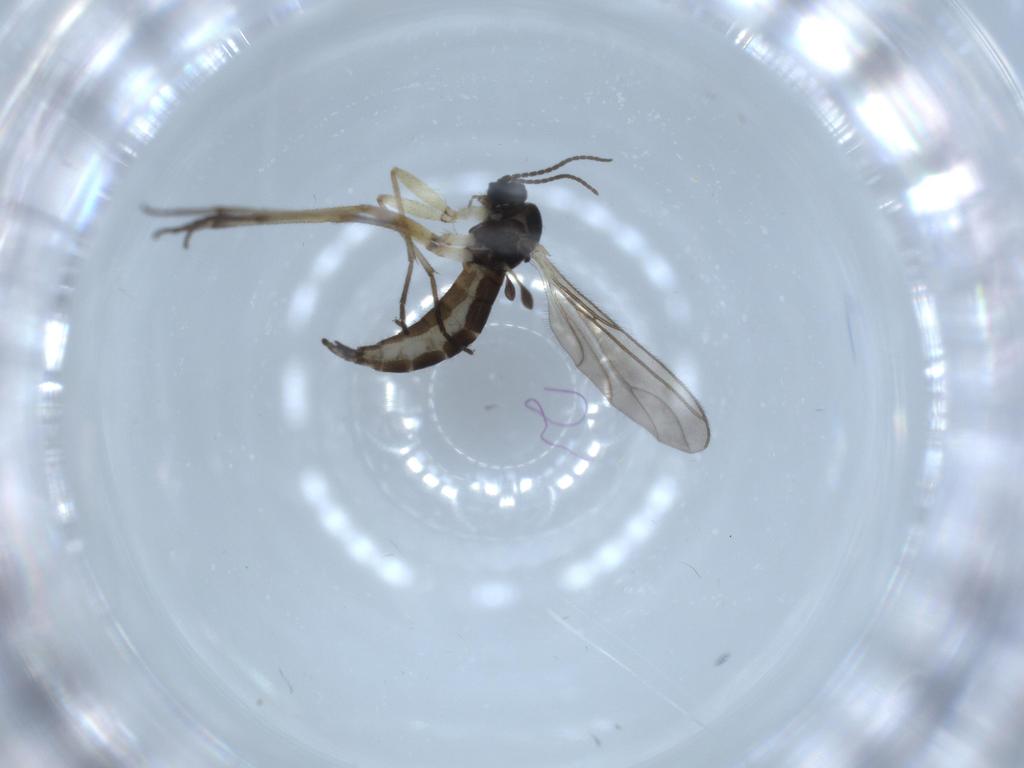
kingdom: Animalia
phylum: Arthropoda
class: Insecta
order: Diptera
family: Sciaridae
